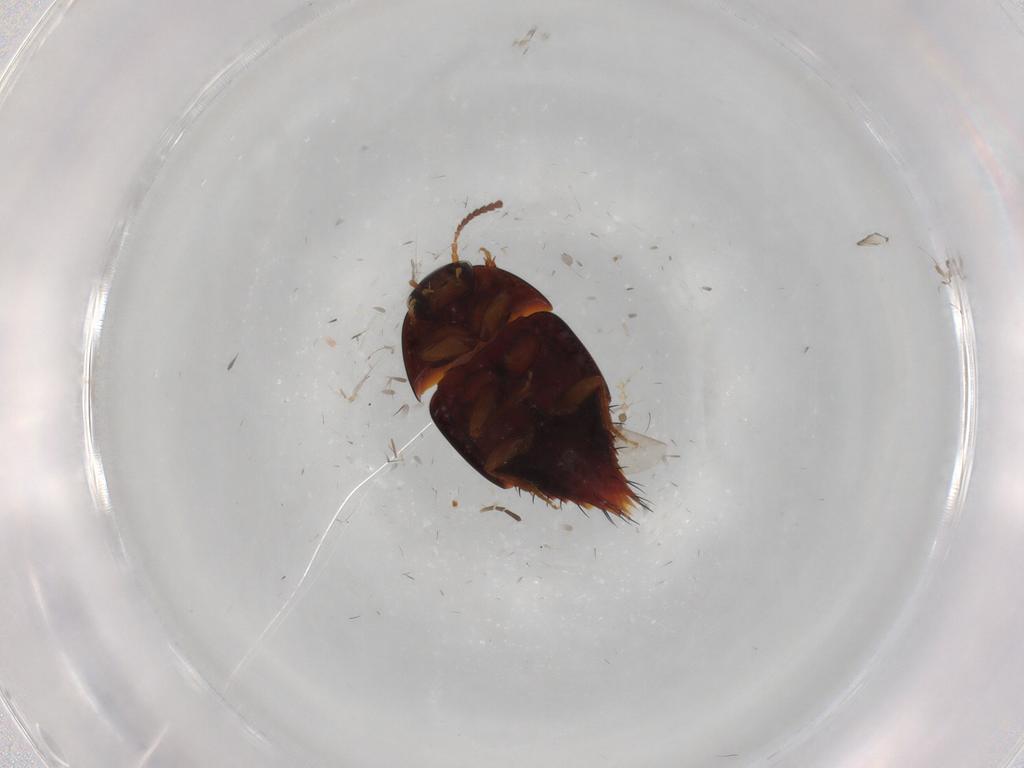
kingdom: Animalia
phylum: Arthropoda
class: Insecta
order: Coleoptera
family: Staphylinidae
